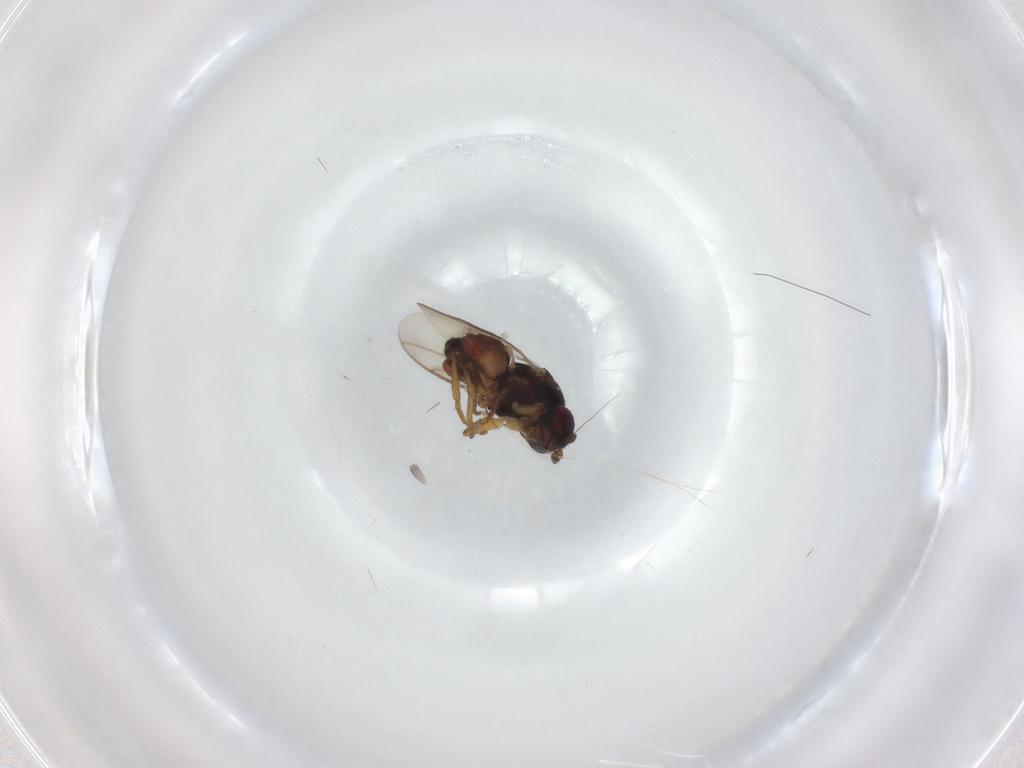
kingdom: Animalia
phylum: Arthropoda
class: Insecta
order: Diptera
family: Sphaeroceridae
